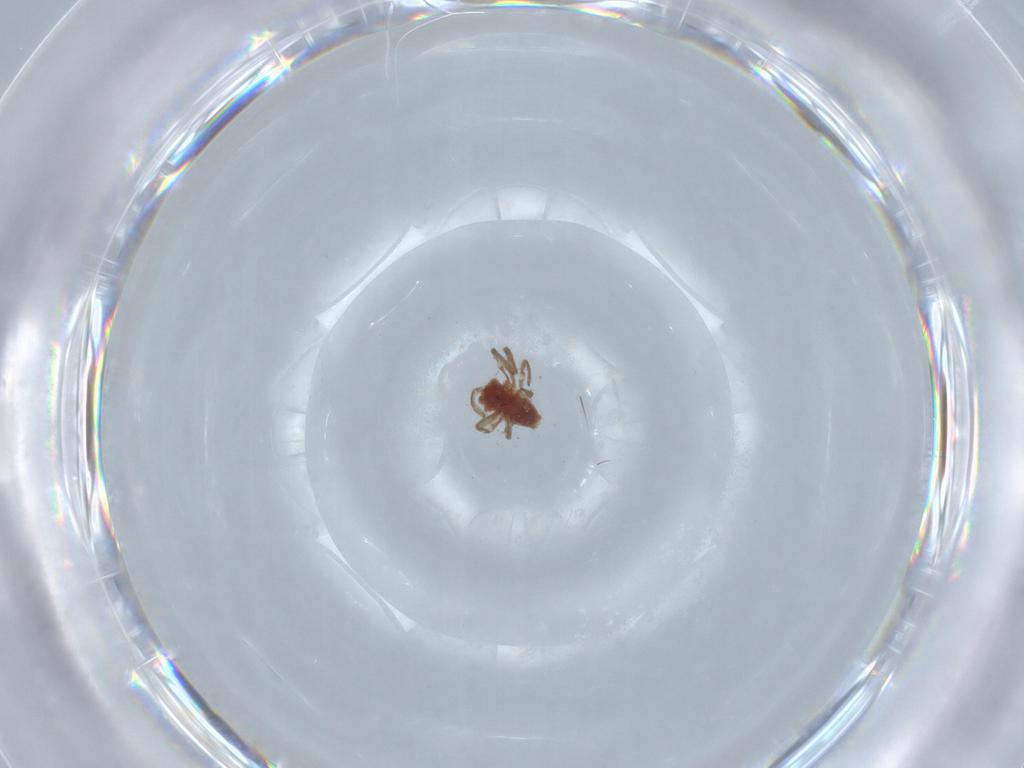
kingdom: Animalia
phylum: Arthropoda
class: Arachnida
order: Araneae
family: Dictynidae
